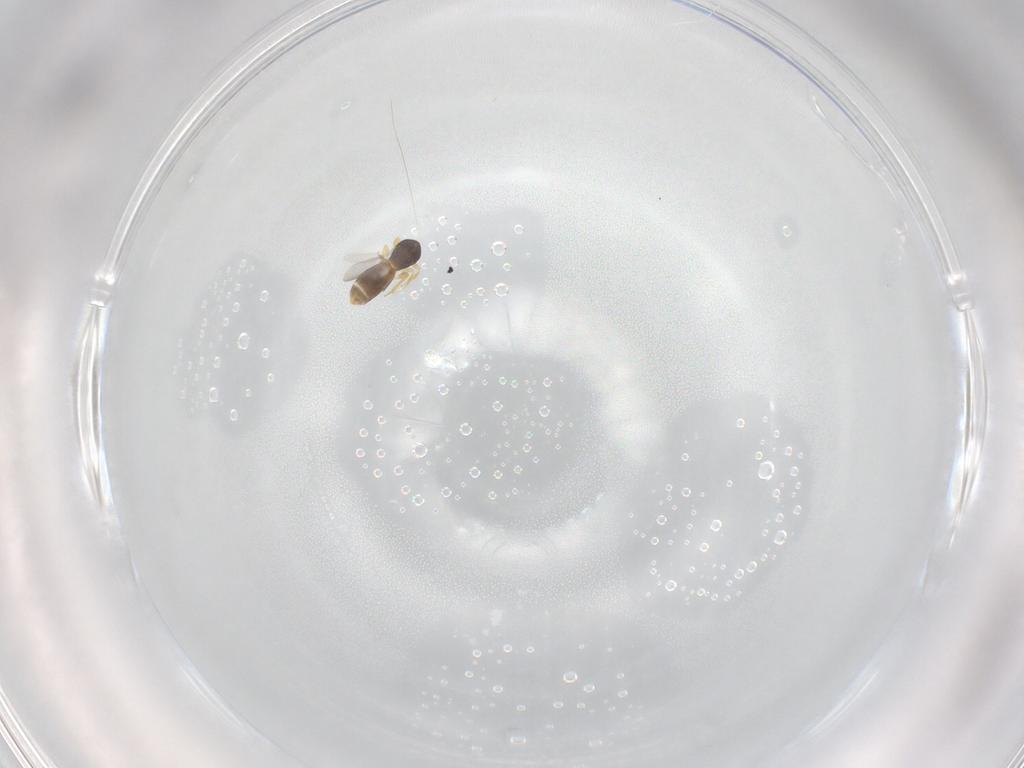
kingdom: Animalia
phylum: Arthropoda
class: Insecta
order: Hymenoptera
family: Platygastridae
